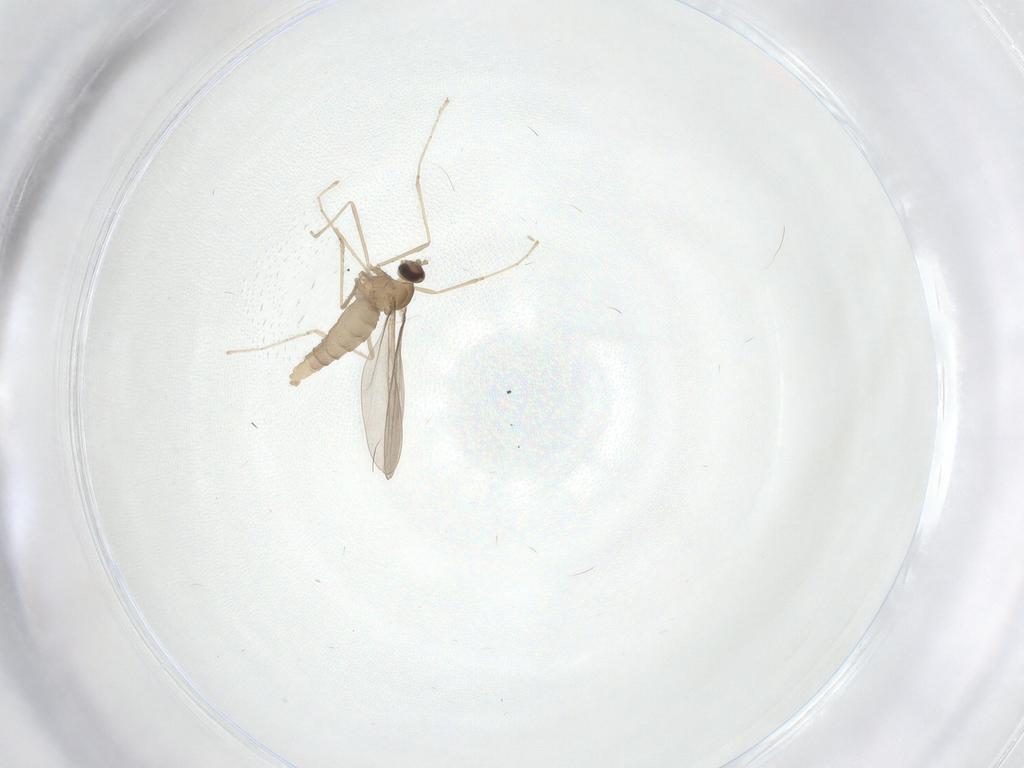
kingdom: Animalia
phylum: Arthropoda
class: Insecta
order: Diptera
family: Cecidomyiidae
